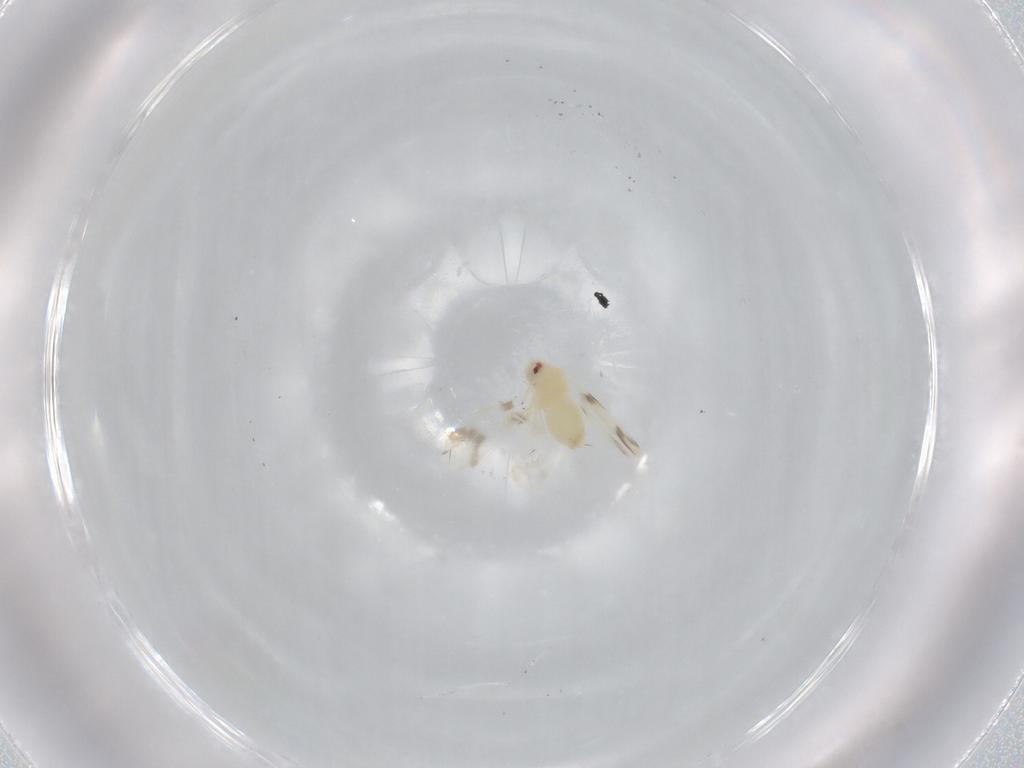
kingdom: Animalia
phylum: Arthropoda
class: Insecta
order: Hemiptera
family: Aleyrodidae
